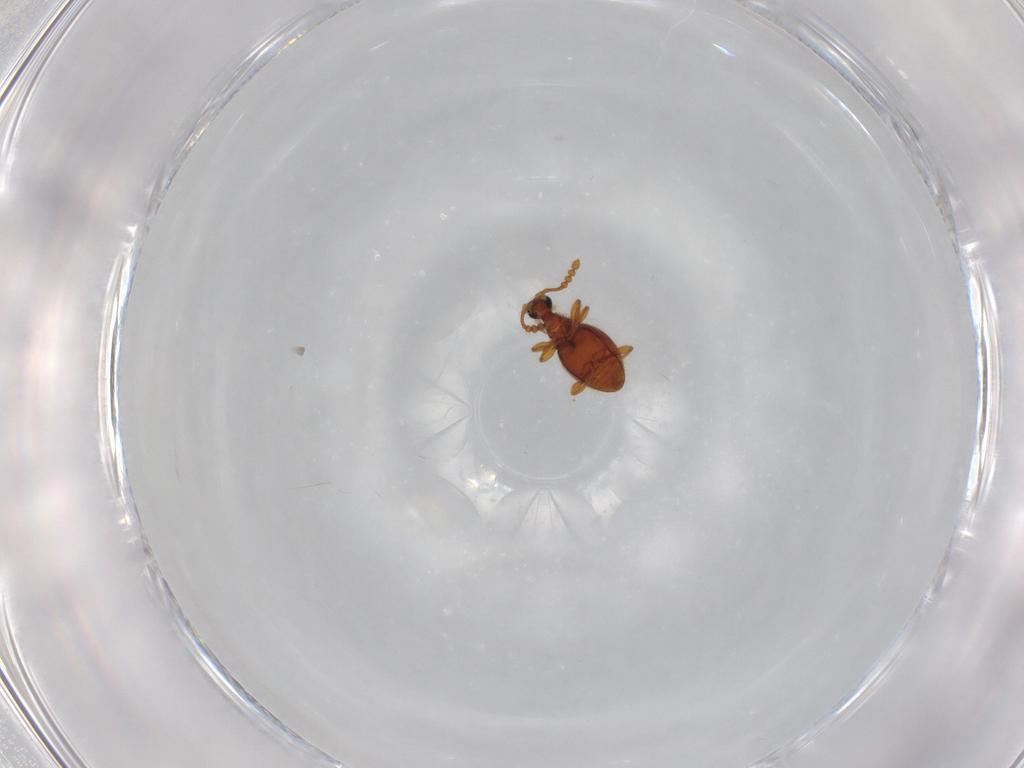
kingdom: Animalia
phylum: Arthropoda
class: Insecta
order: Coleoptera
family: Staphylinidae
